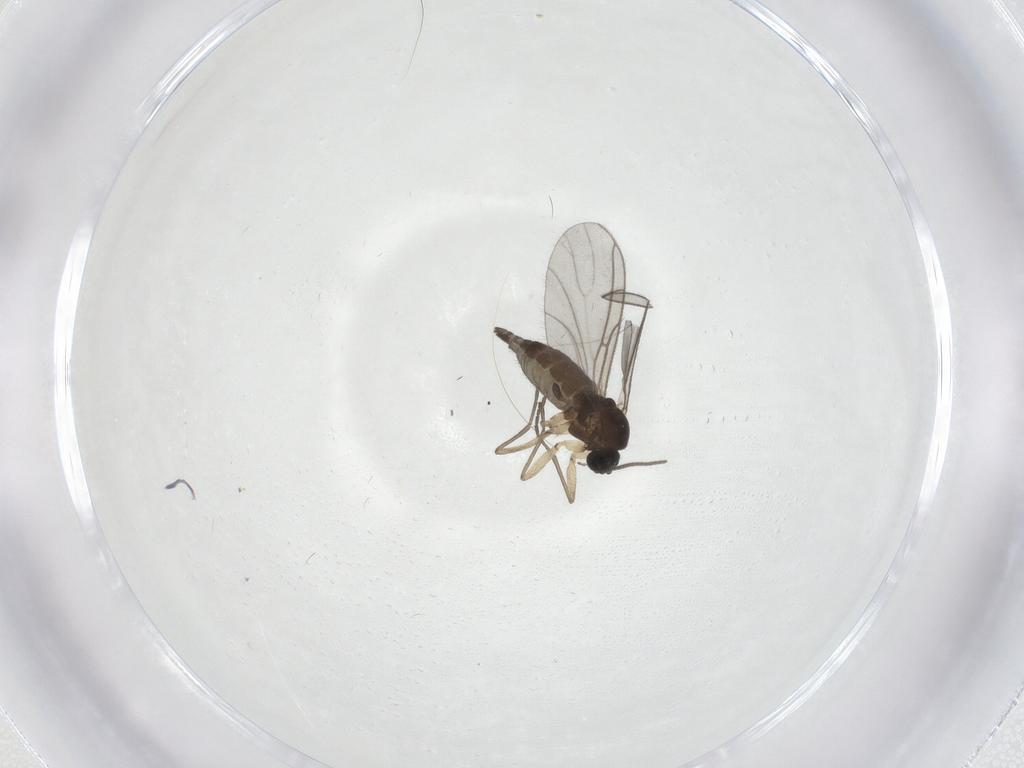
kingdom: Animalia
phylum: Arthropoda
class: Insecta
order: Diptera
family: Sciaridae
